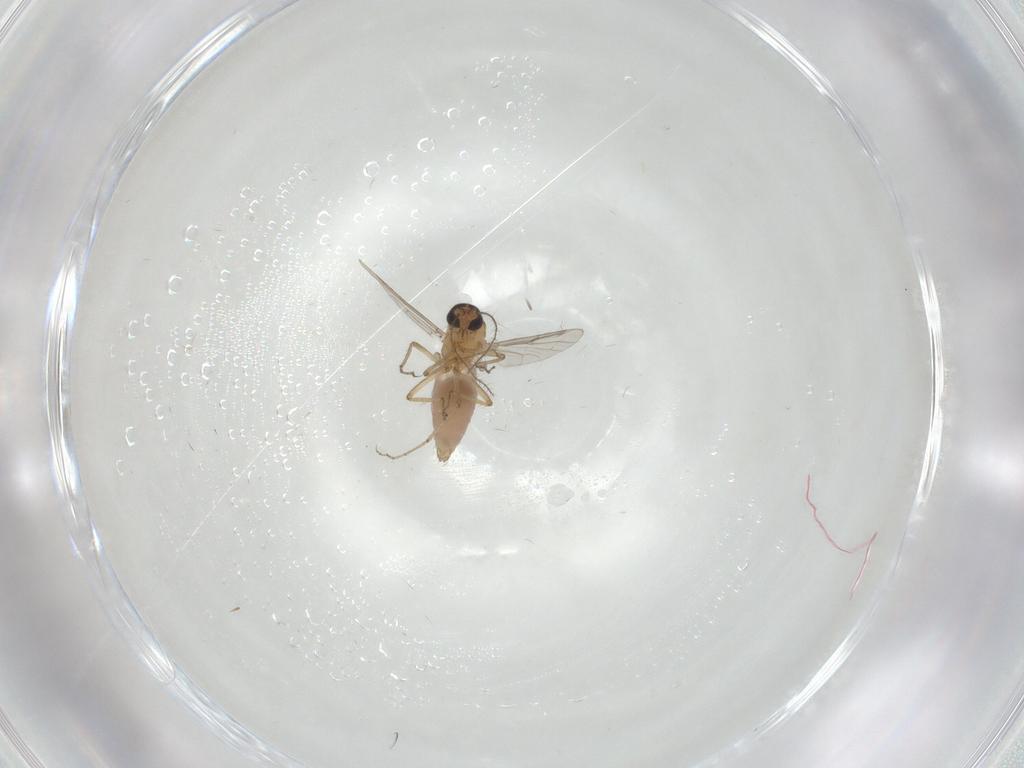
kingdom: Animalia
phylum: Arthropoda
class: Insecta
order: Diptera
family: Chironomidae
